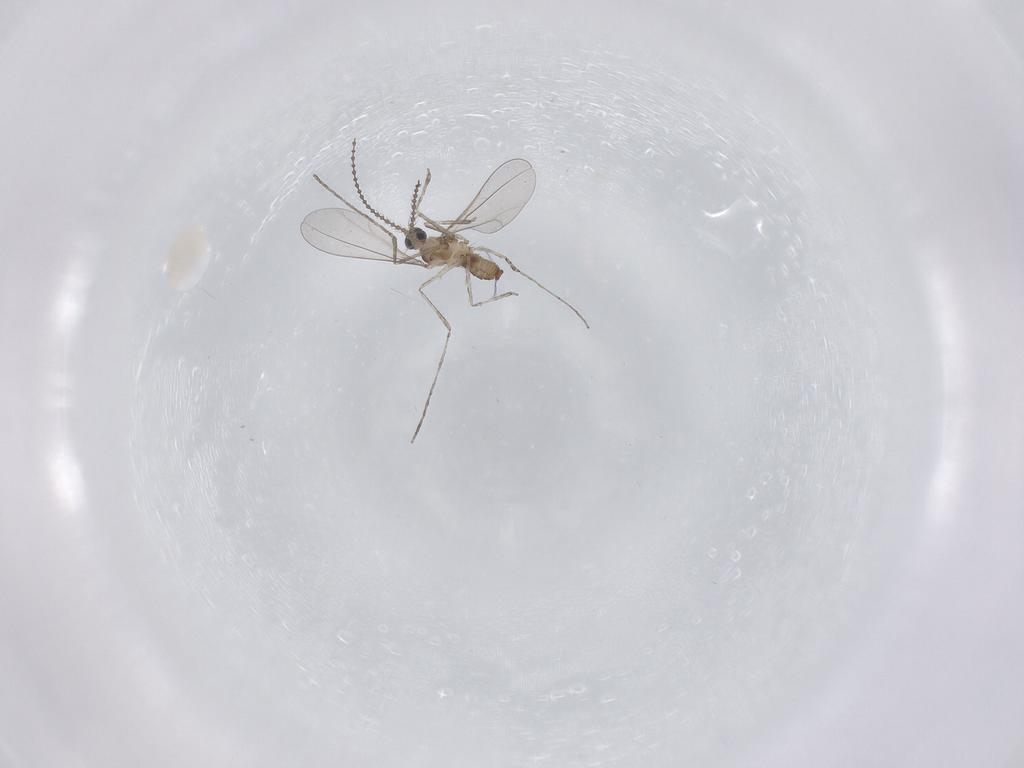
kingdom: Animalia
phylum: Arthropoda
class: Insecta
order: Diptera
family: Cecidomyiidae
